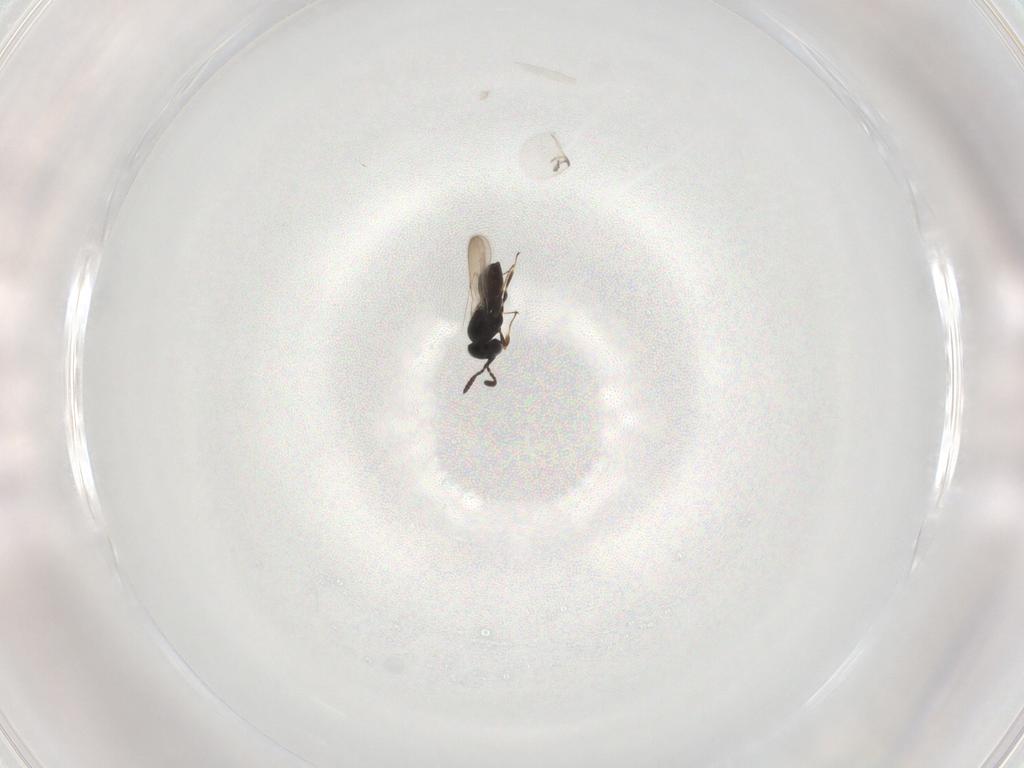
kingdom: Animalia
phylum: Arthropoda
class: Insecta
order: Hymenoptera
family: Scelionidae
